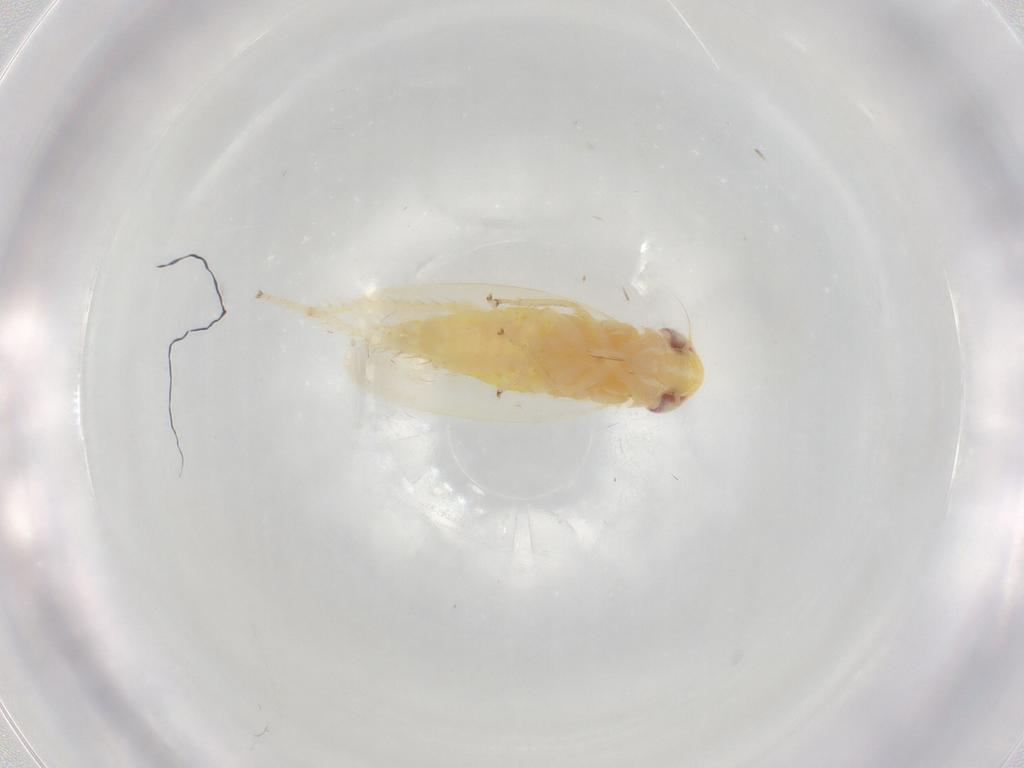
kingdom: Animalia
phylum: Arthropoda
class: Insecta
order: Hemiptera
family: Cicadellidae
